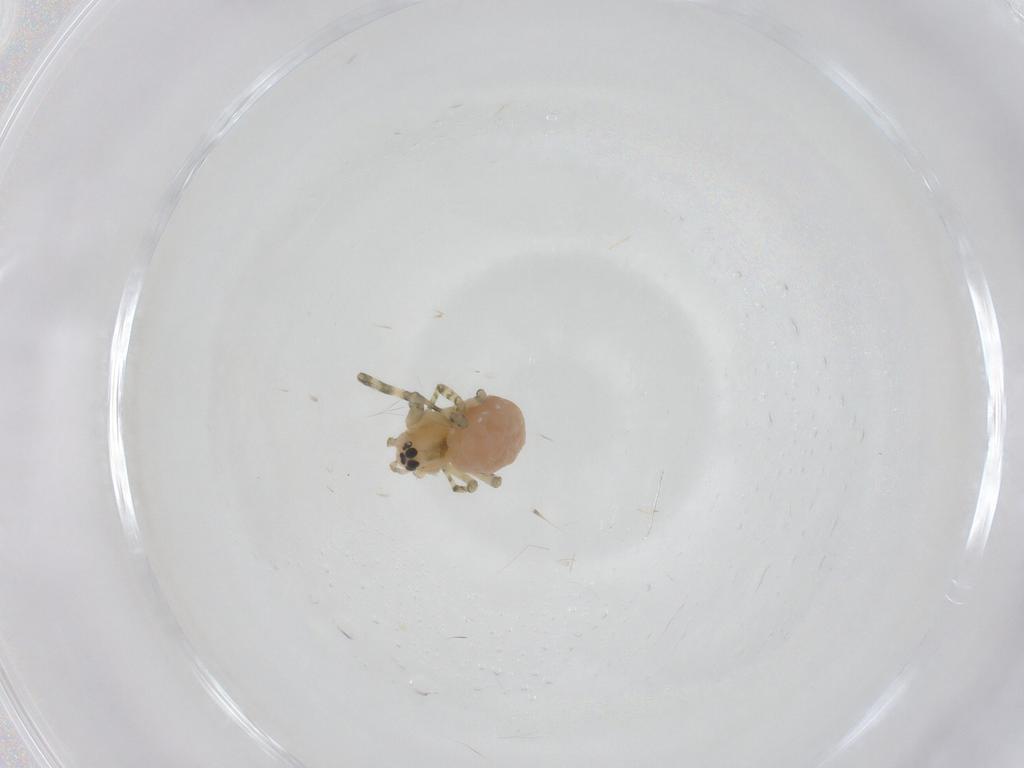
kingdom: Animalia
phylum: Arthropoda
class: Arachnida
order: Araneae
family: Linyphiidae
